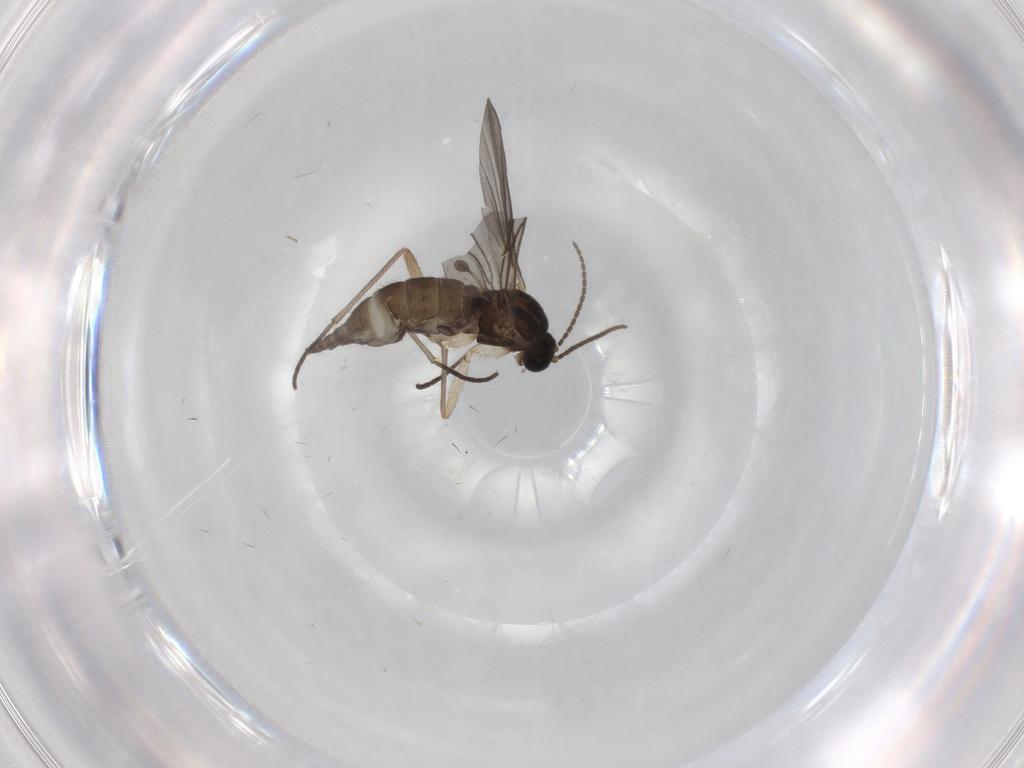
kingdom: Animalia
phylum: Arthropoda
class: Insecta
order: Diptera
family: Cecidomyiidae
